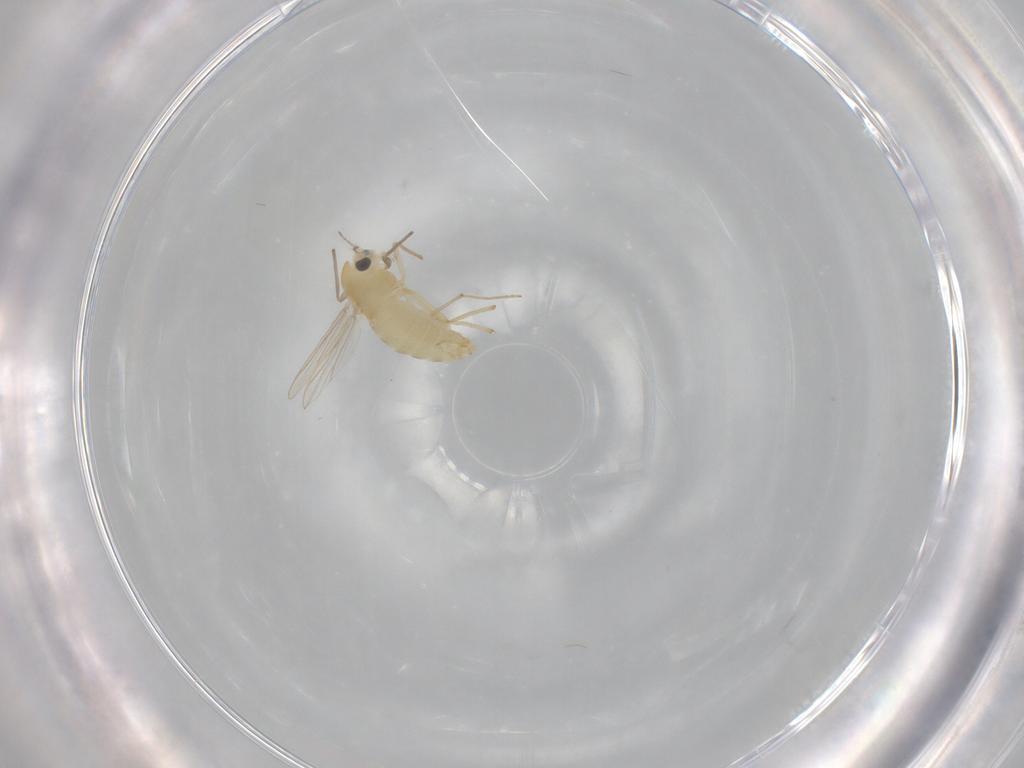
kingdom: Animalia
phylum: Arthropoda
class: Insecta
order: Diptera
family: Chironomidae
